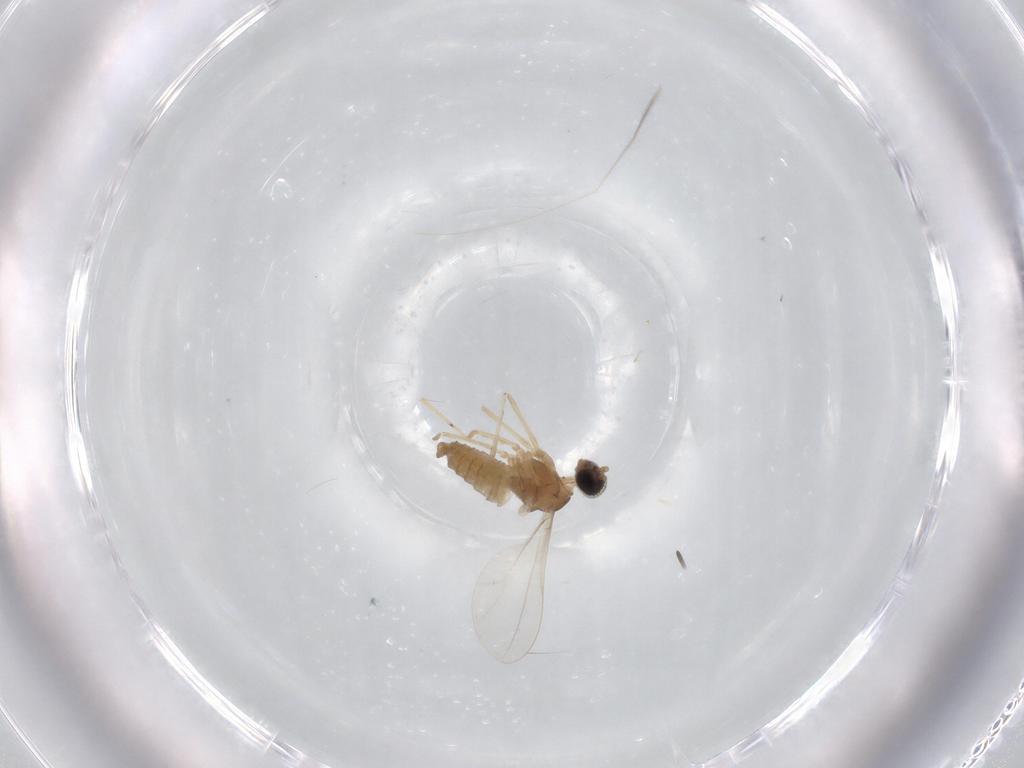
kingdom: Animalia
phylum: Arthropoda
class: Insecta
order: Diptera
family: Cecidomyiidae
